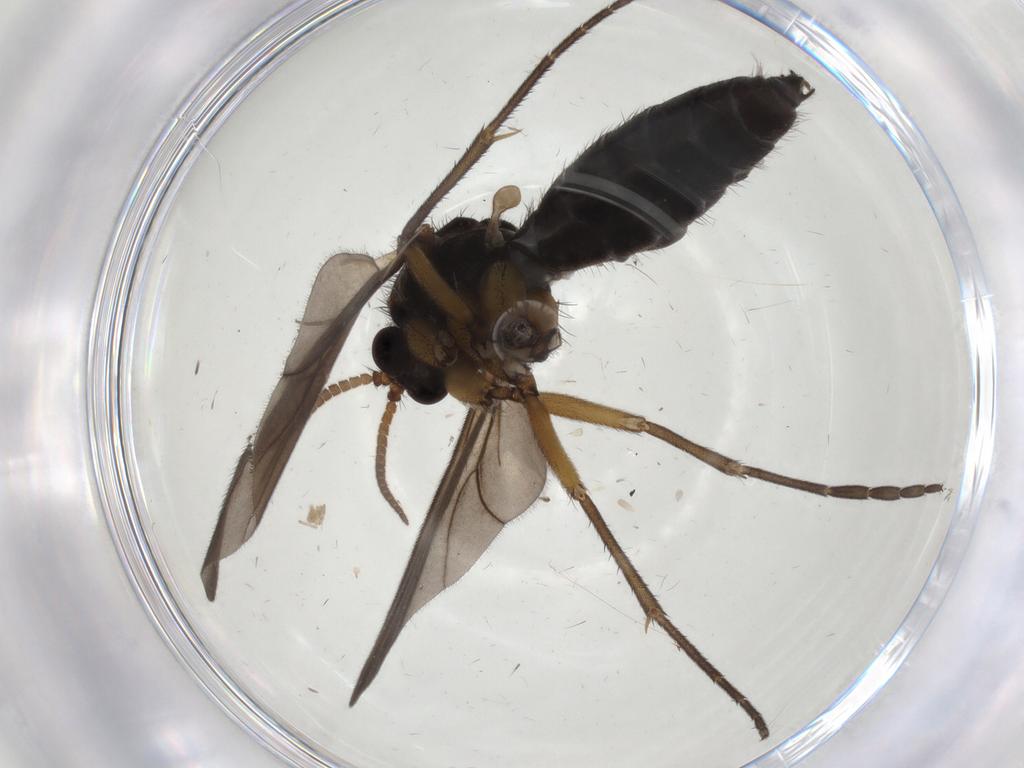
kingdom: Animalia
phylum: Arthropoda
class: Insecta
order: Diptera
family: Mycetophilidae
